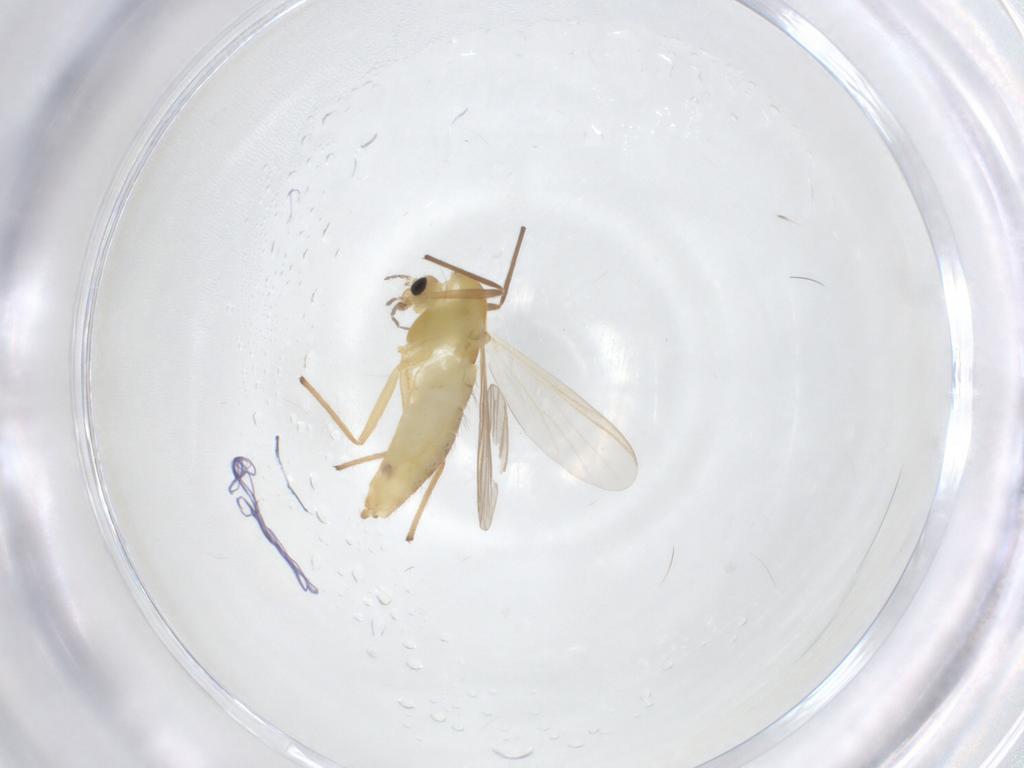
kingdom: Animalia
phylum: Arthropoda
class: Insecta
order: Diptera
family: Chironomidae
